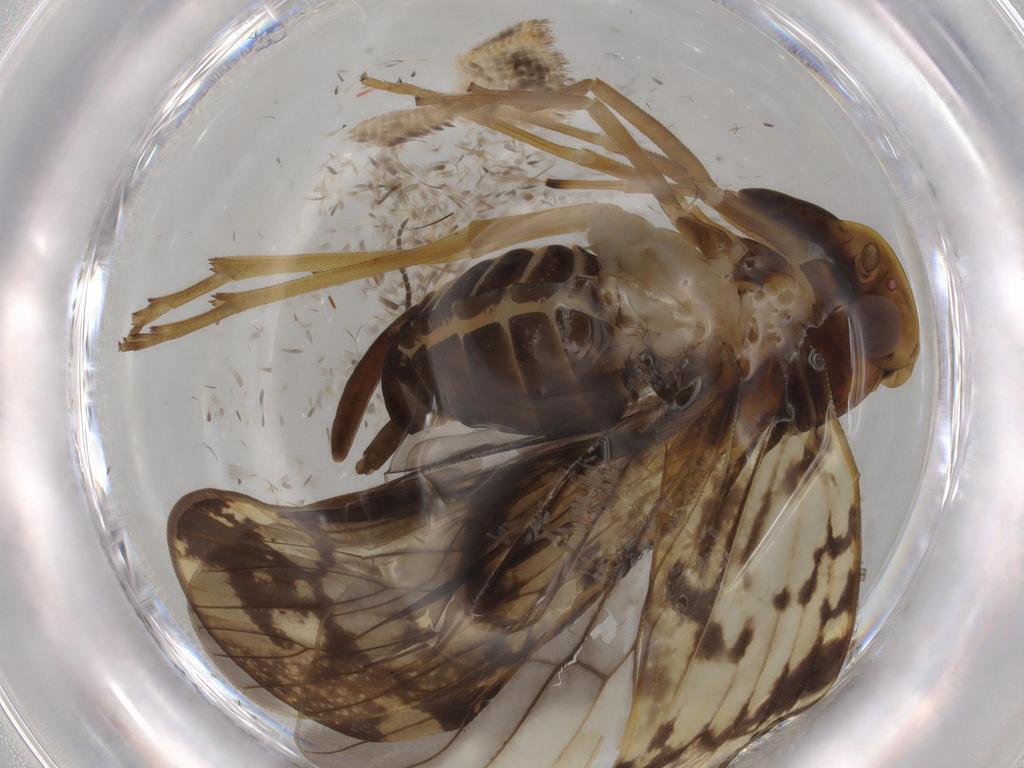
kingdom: Animalia
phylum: Arthropoda
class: Insecta
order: Hemiptera
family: Cixiidae
